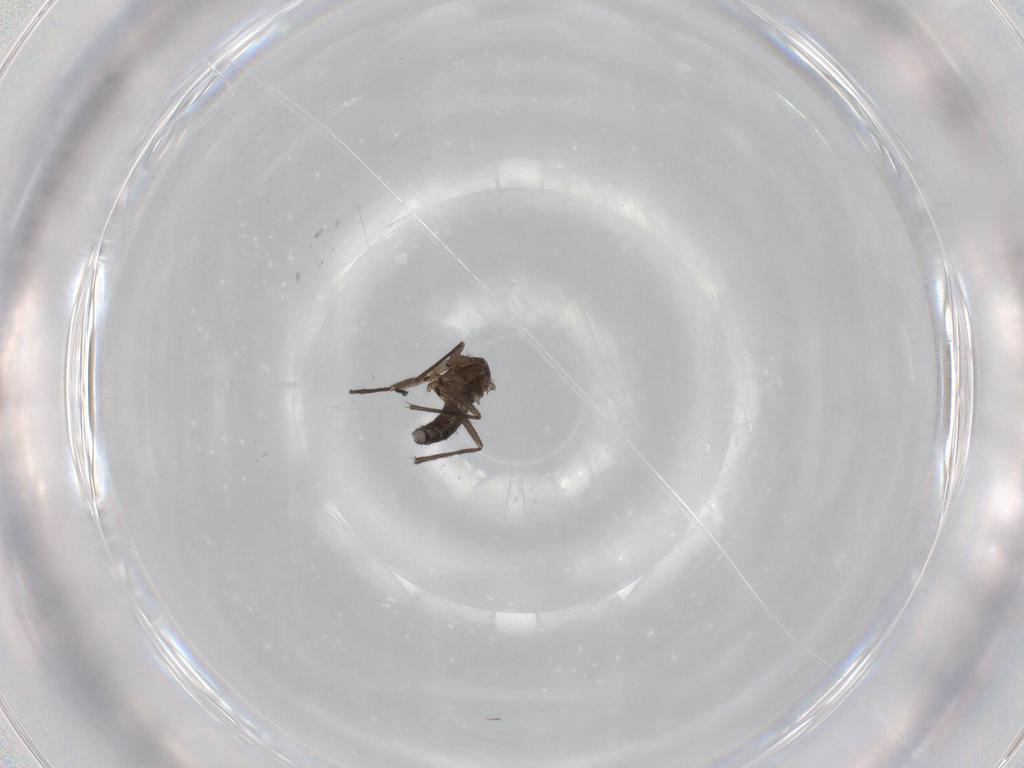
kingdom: Animalia
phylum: Arthropoda
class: Insecta
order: Diptera
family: Sciaridae
